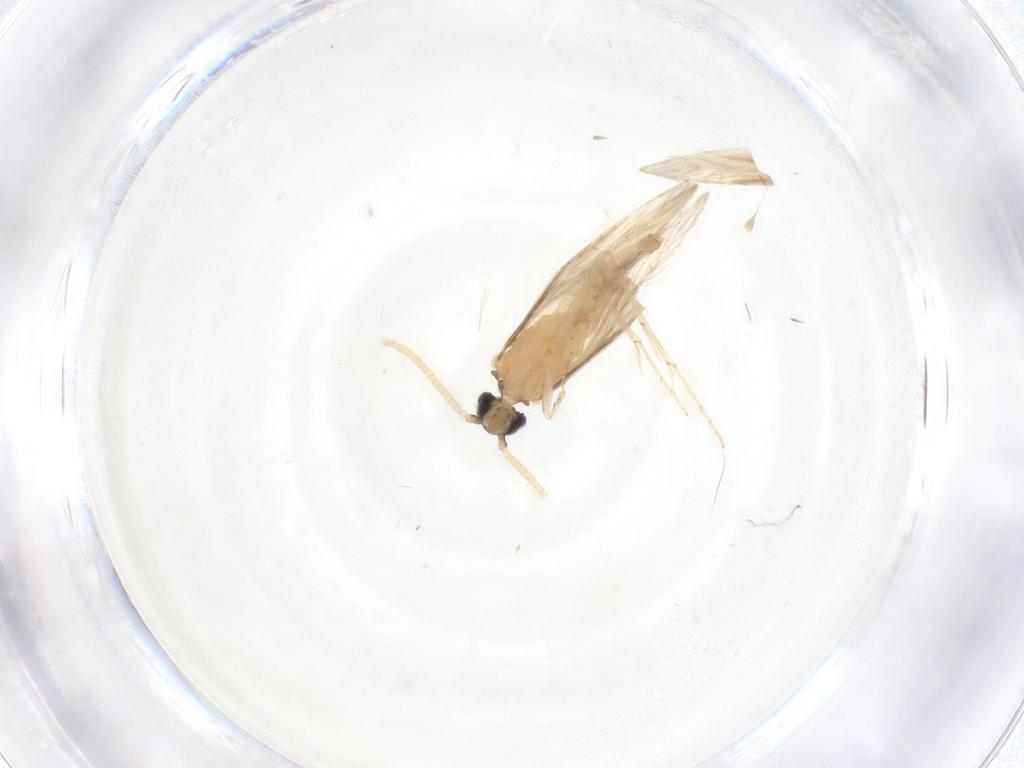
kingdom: Animalia
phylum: Arthropoda
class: Insecta
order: Trichoptera
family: Hydroptilidae
